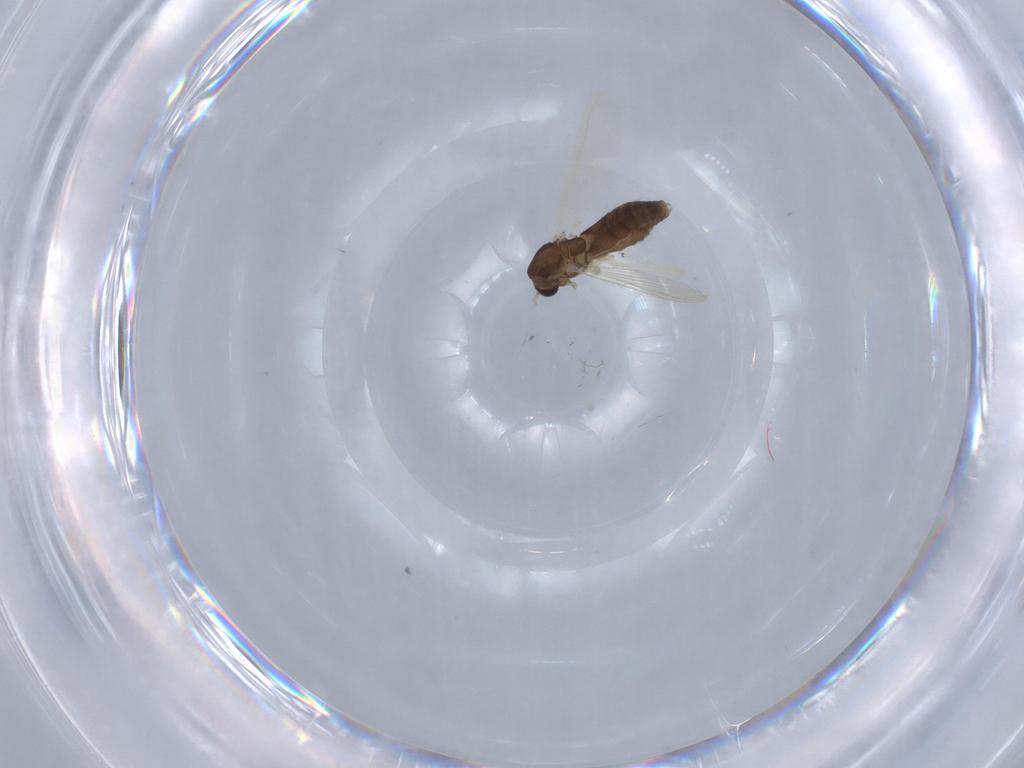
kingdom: Animalia
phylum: Arthropoda
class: Insecta
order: Diptera
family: Chironomidae
